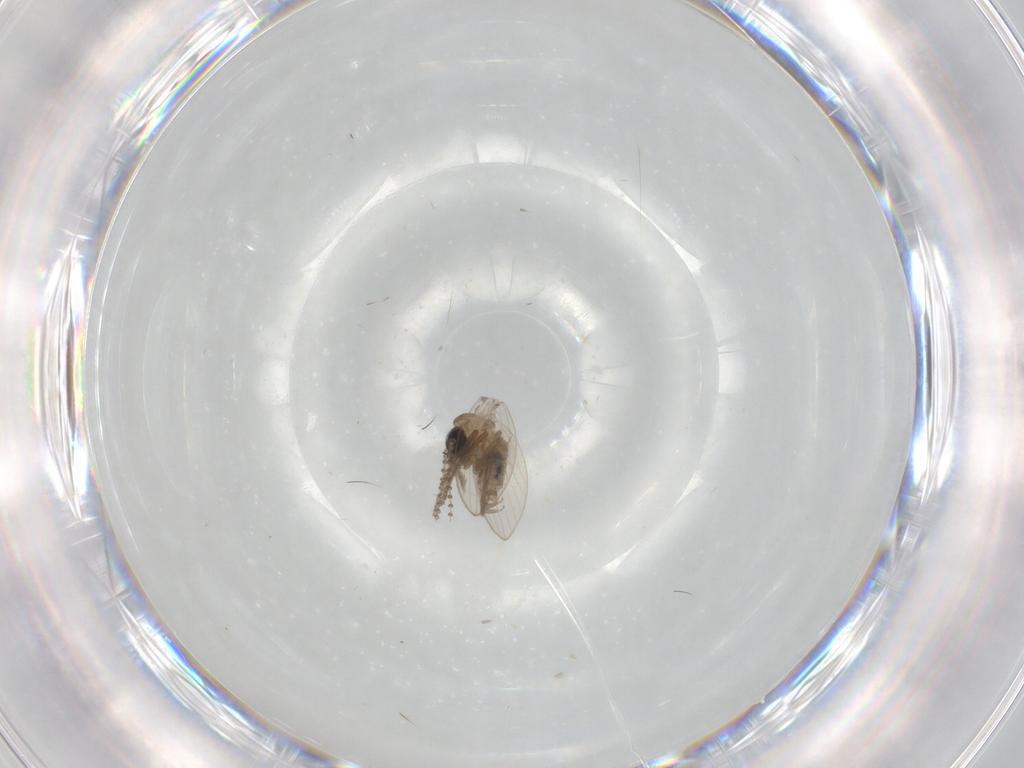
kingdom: Animalia
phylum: Arthropoda
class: Insecta
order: Diptera
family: Psychodidae
